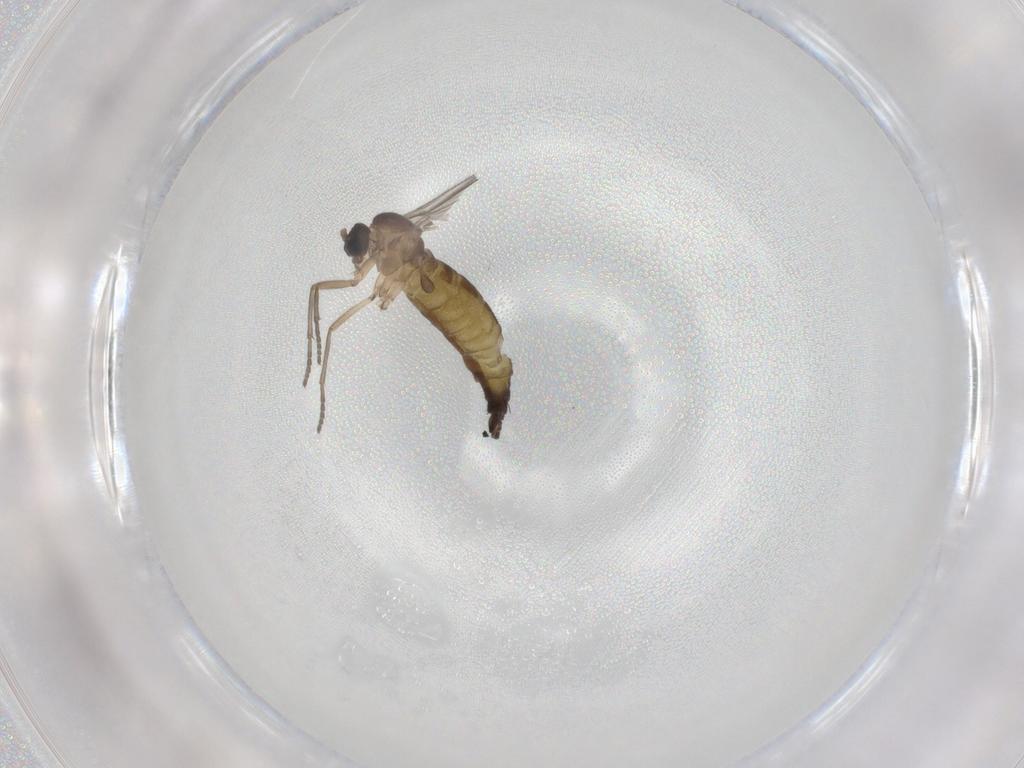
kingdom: Animalia
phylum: Arthropoda
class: Insecta
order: Diptera
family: Sciaridae
